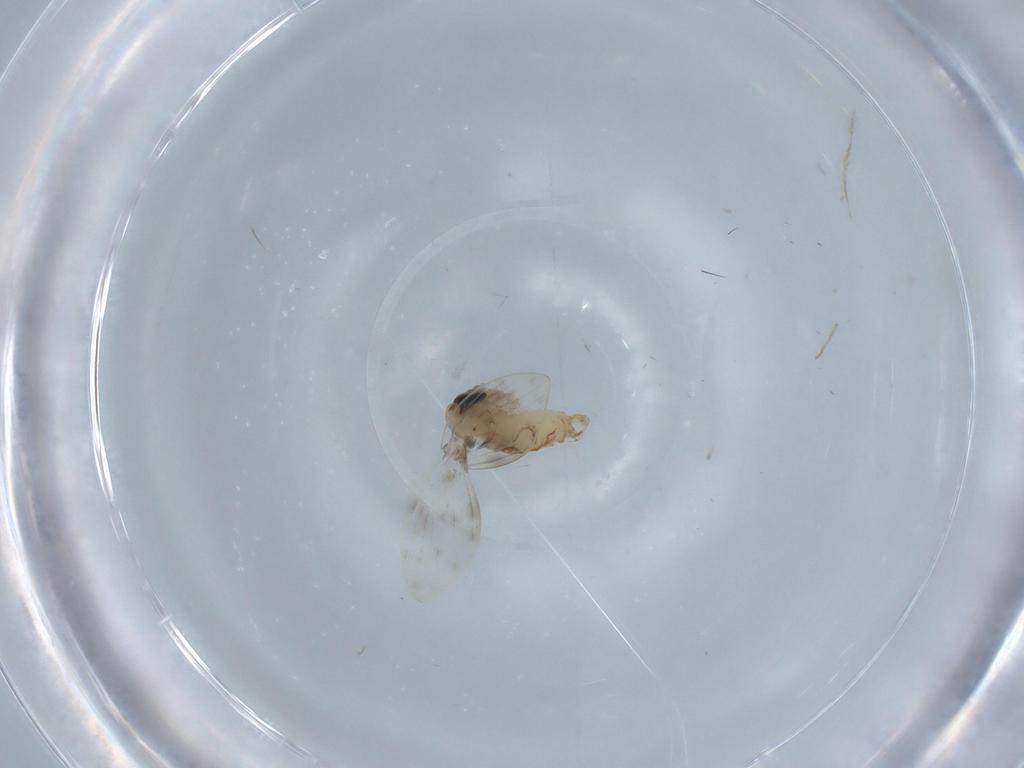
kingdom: Animalia
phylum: Arthropoda
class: Insecta
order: Diptera
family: Psychodidae
